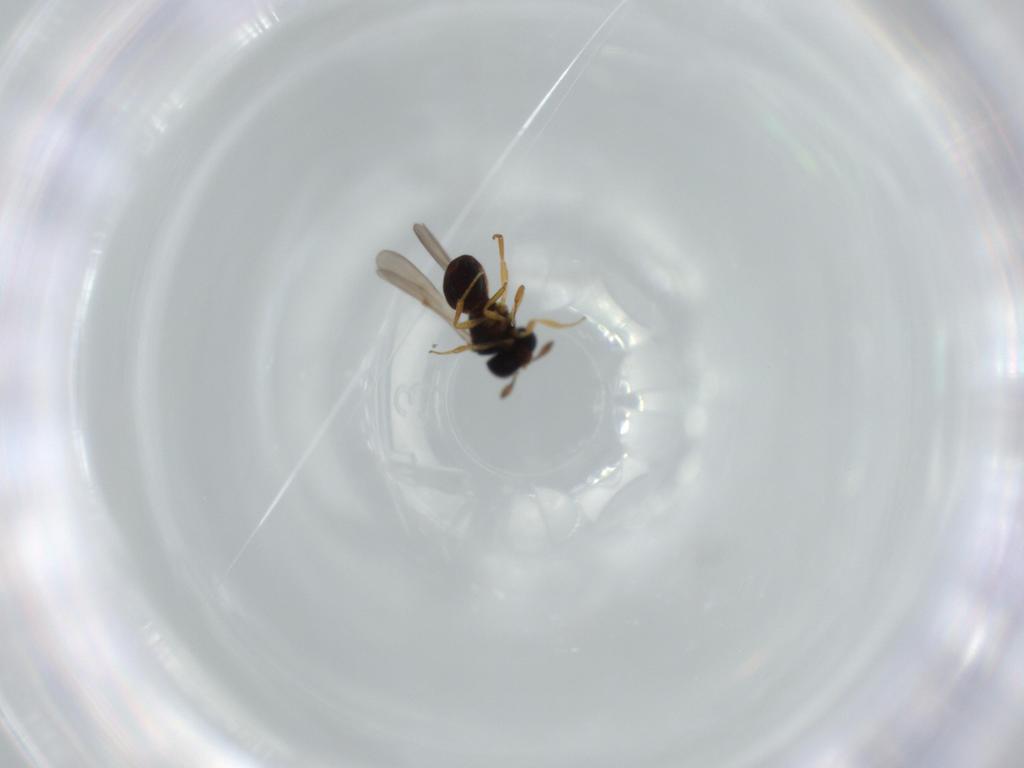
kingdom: Animalia
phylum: Arthropoda
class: Insecta
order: Hymenoptera
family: Scelionidae
